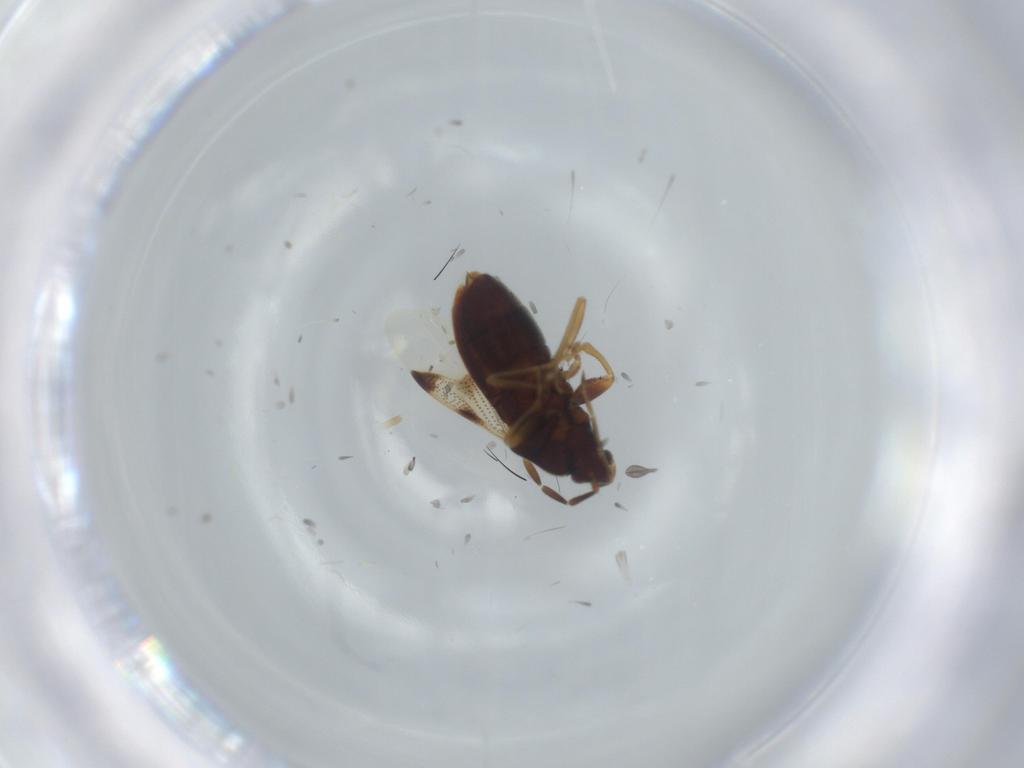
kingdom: Animalia
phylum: Arthropoda
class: Insecta
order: Hemiptera
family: Rhyparochromidae
